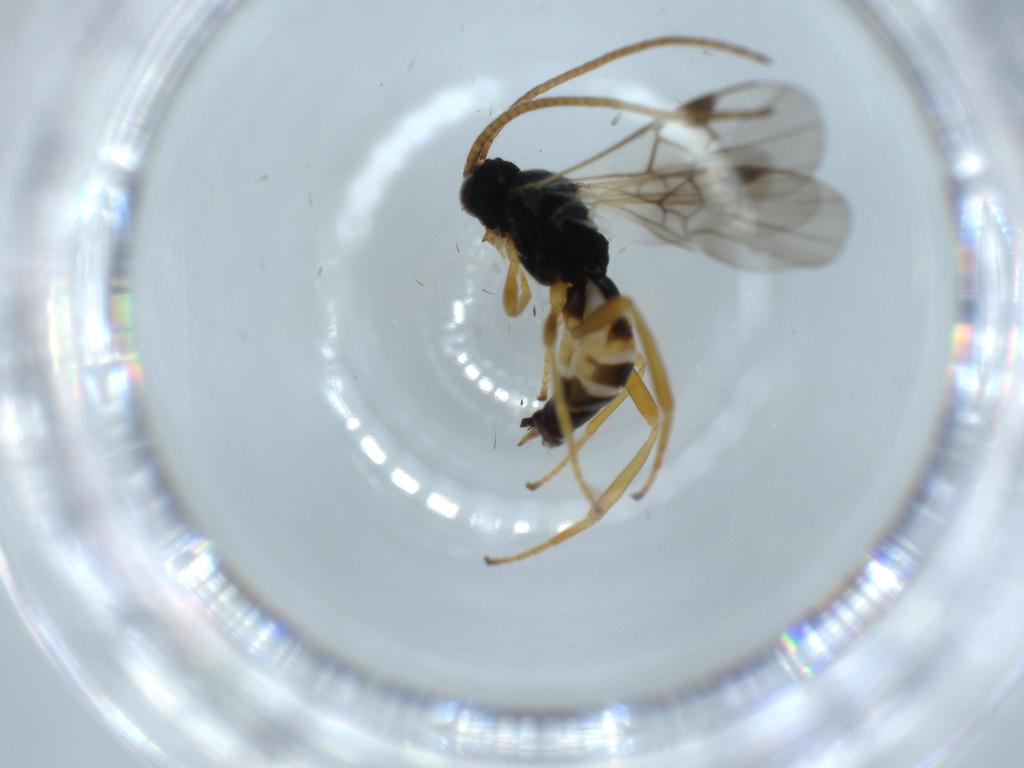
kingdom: Animalia
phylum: Arthropoda
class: Insecta
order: Hymenoptera
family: Braconidae
